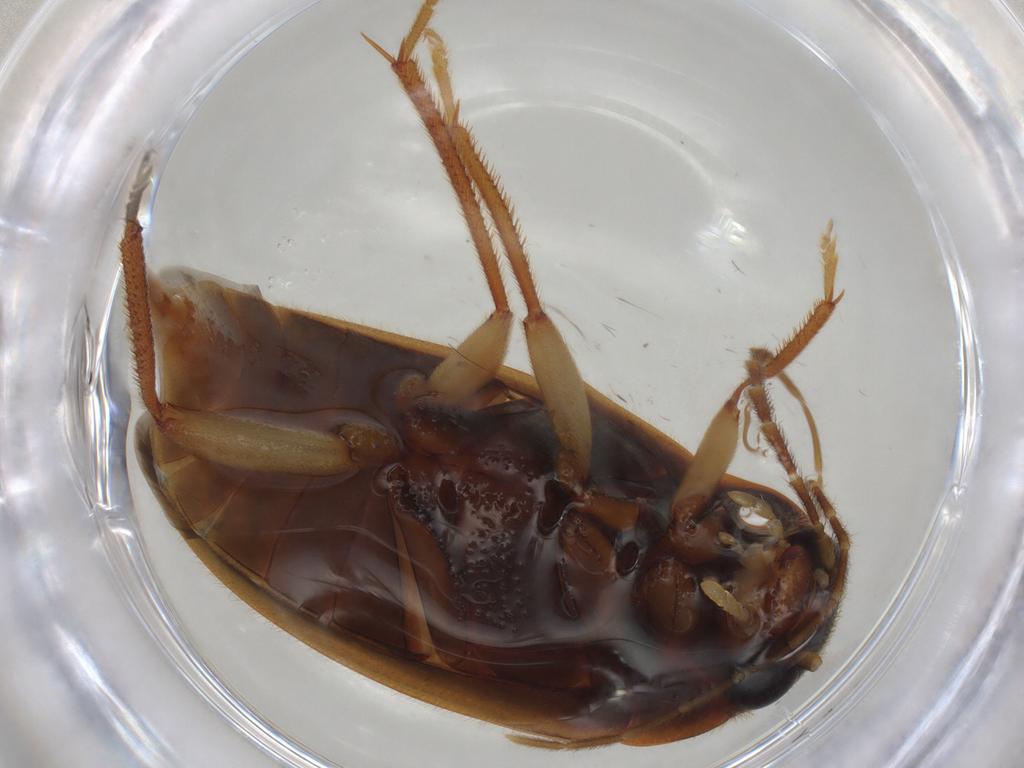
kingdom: Animalia
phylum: Arthropoda
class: Insecta
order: Coleoptera
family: Ptilodactylidae
